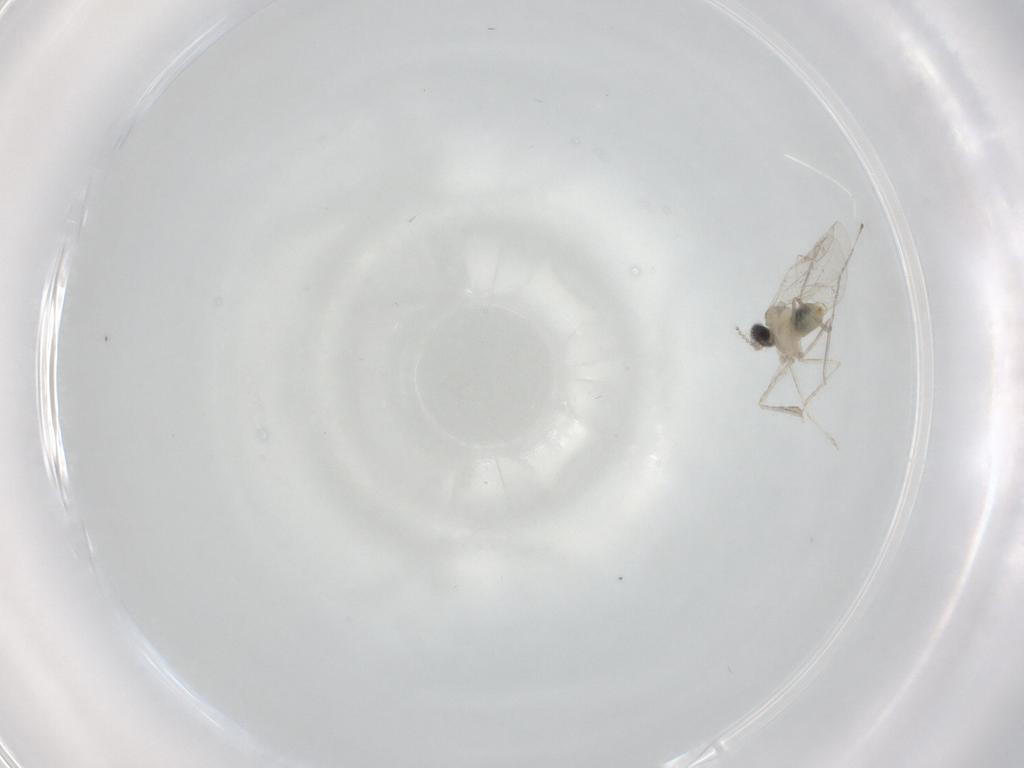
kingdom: Animalia
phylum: Arthropoda
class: Insecta
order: Diptera
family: Cecidomyiidae
